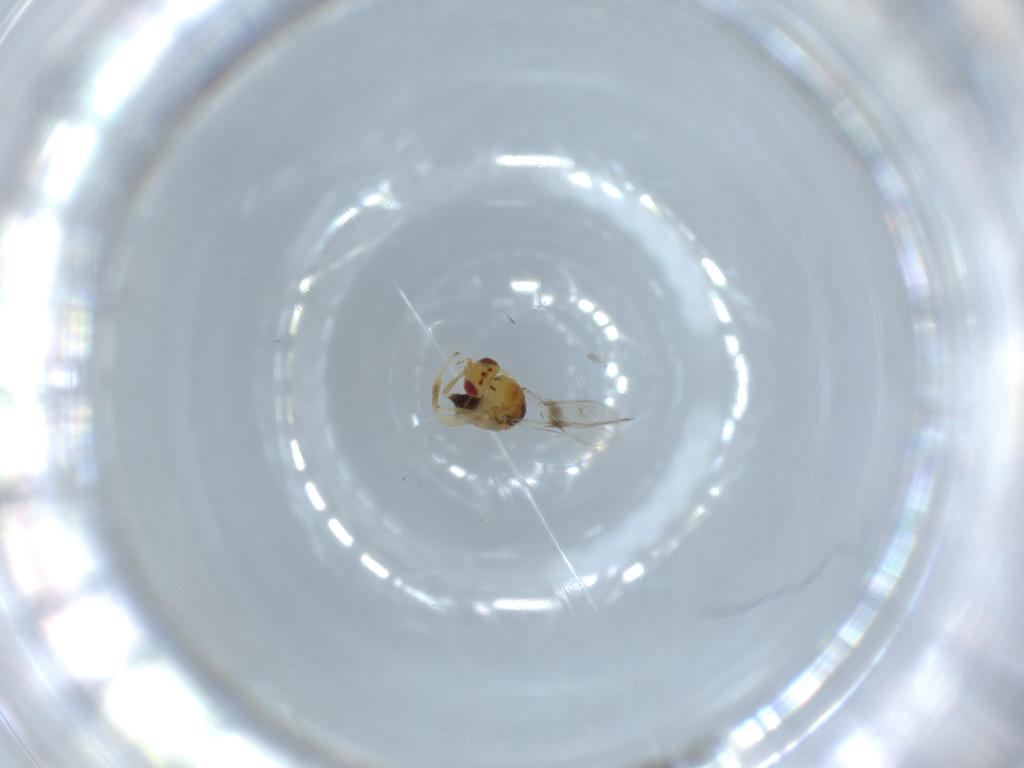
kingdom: Animalia
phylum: Arthropoda
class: Insecta
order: Hymenoptera
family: Torymidae
